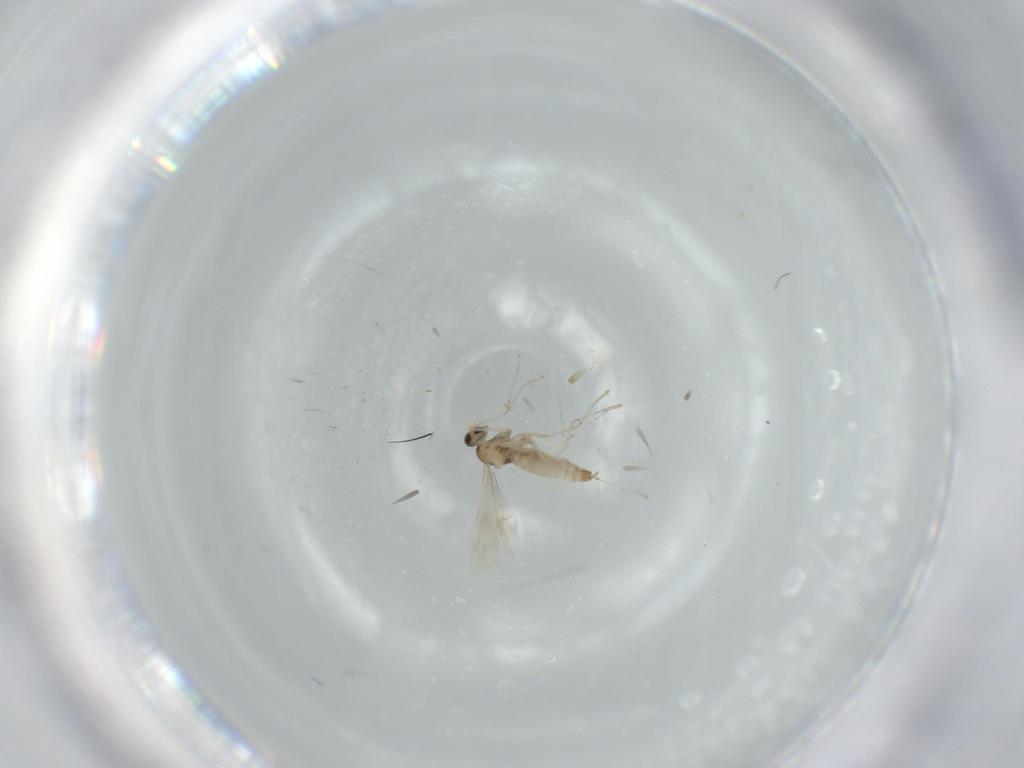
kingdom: Animalia
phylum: Arthropoda
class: Insecta
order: Diptera
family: Cecidomyiidae
